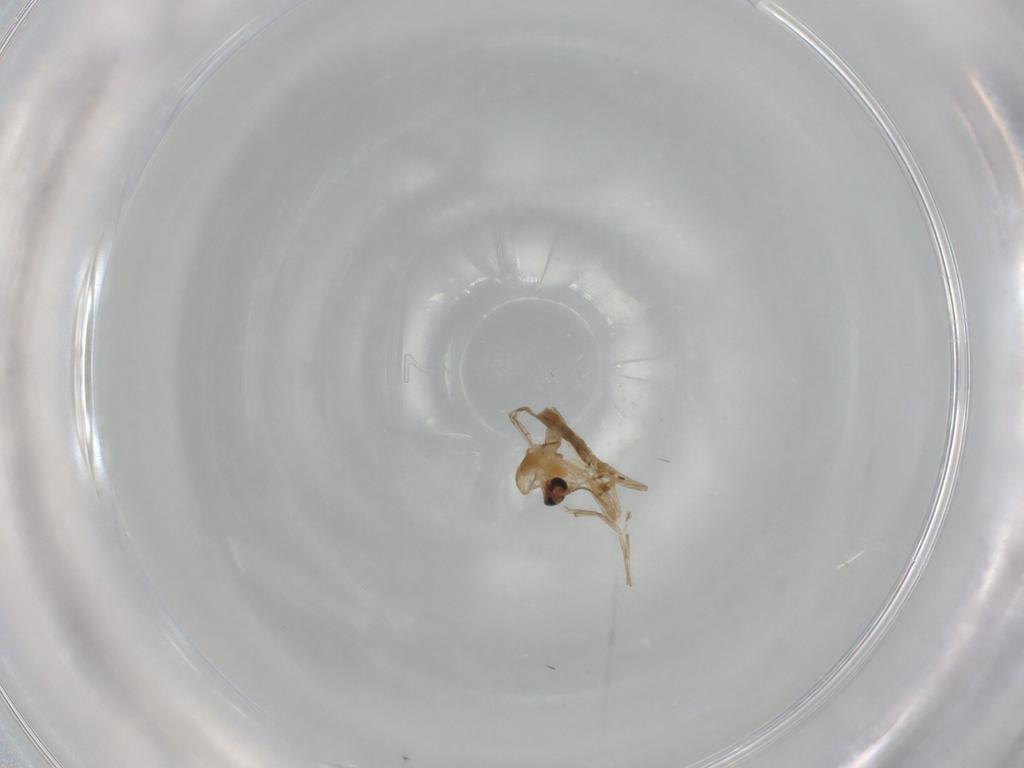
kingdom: Animalia
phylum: Arthropoda
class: Insecta
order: Diptera
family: Chironomidae
